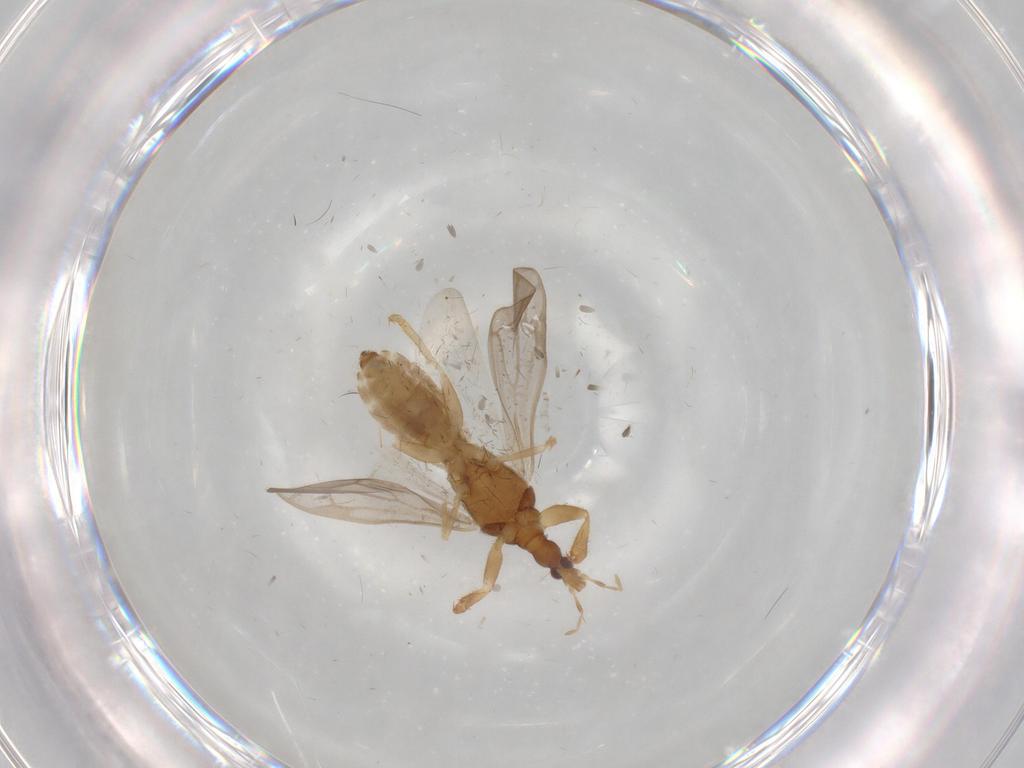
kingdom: Animalia
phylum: Arthropoda
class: Insecta
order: Hemiptera
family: Enicocephalidae
